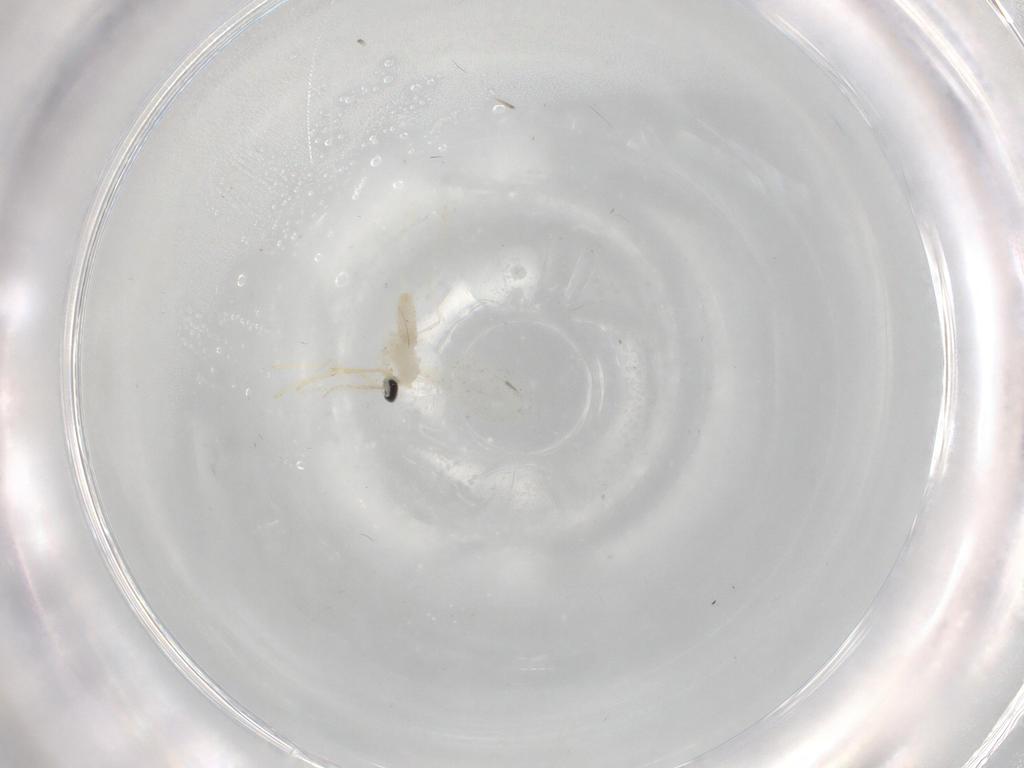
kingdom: Animalia
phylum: Arthropoda
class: Insecta
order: Diptera
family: Cecidomyiidae
